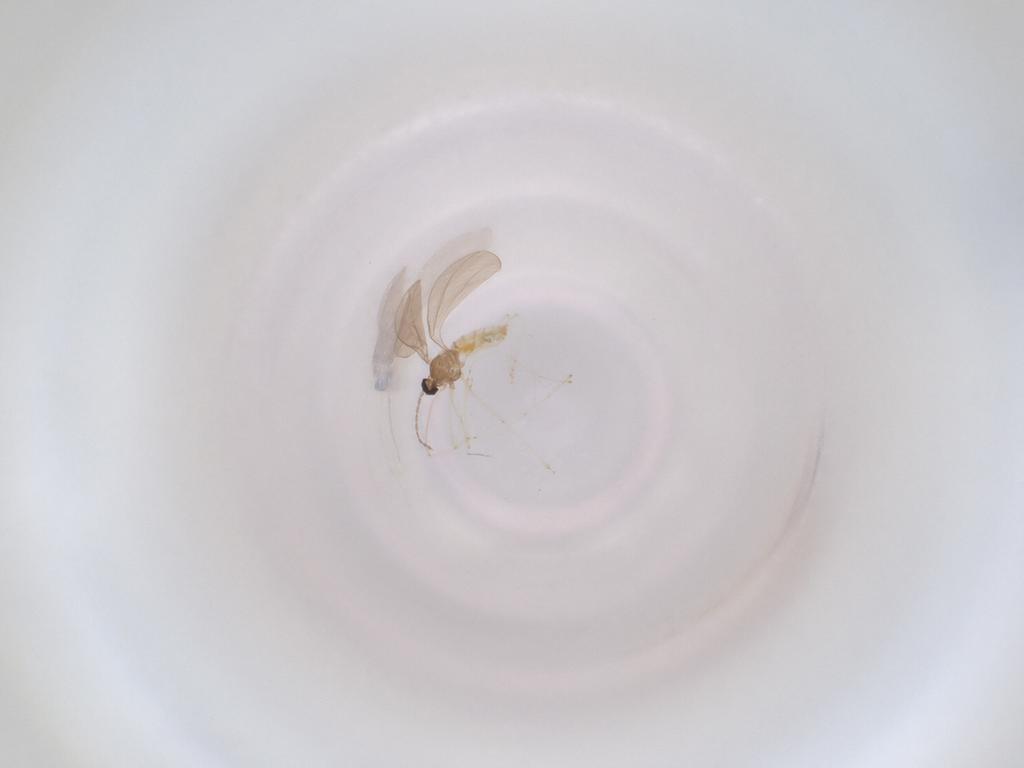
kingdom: Animalia
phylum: Arthropoda
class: Insecta
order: Diptera
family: Cecidomyiidae
